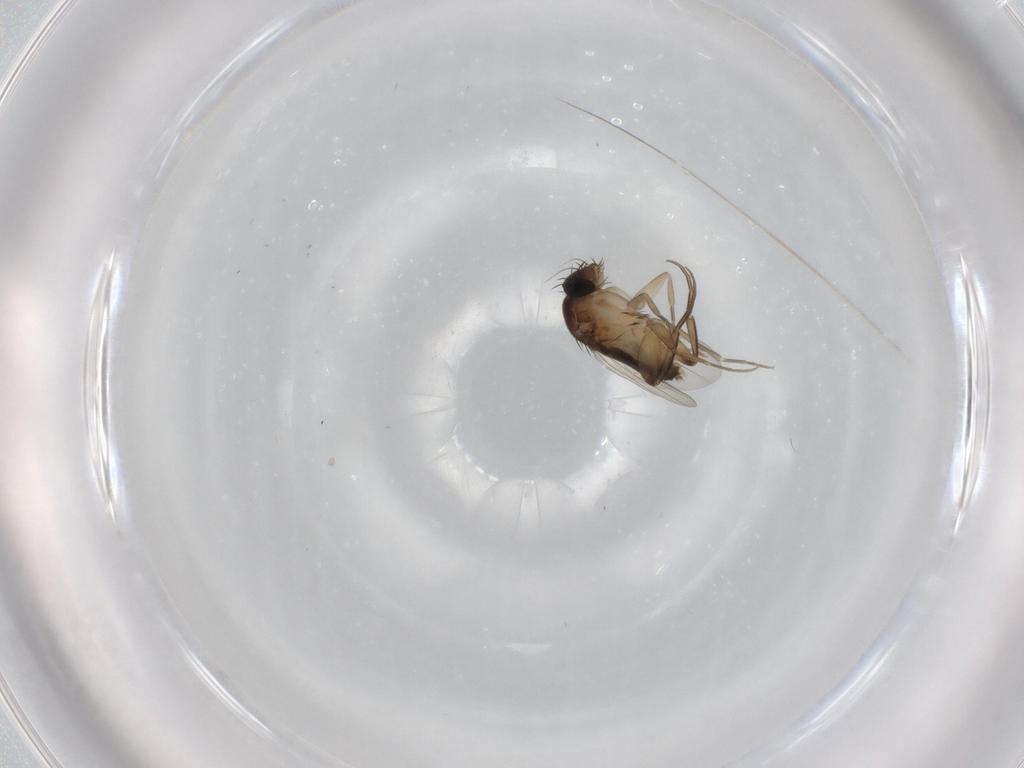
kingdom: Animalia
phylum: Arthropoda
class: Insecta
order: Diptera
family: Phoridae
